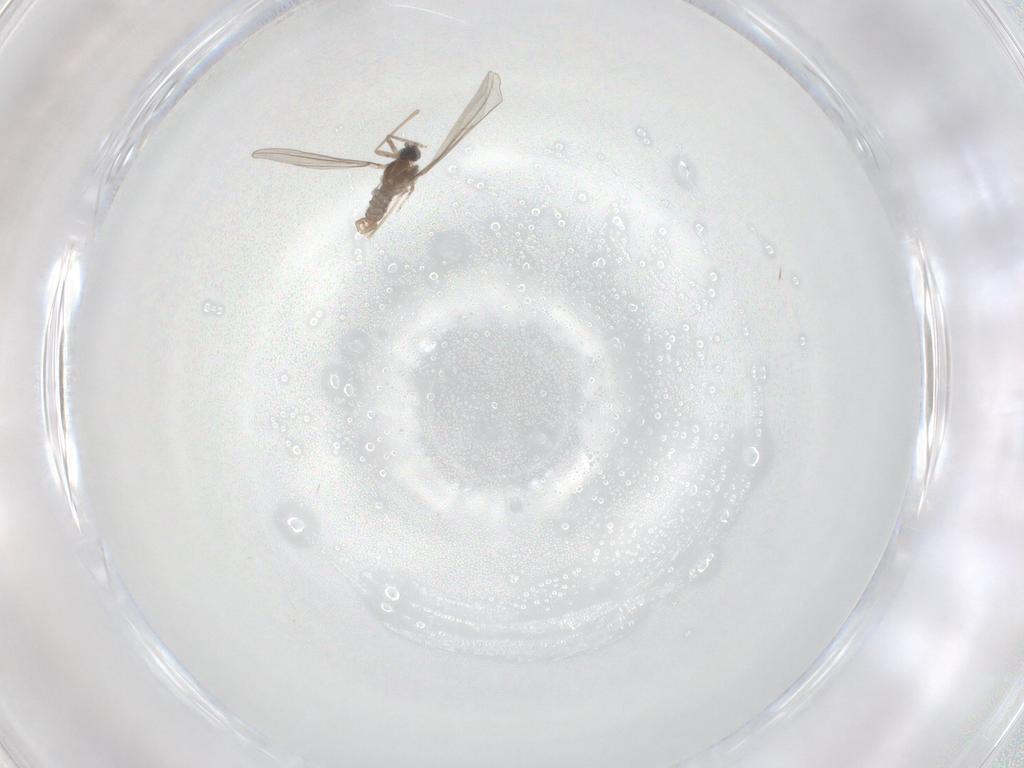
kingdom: Animalia
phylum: Arthropoda
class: Insecta
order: Diptera
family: Cecidomyiidae
